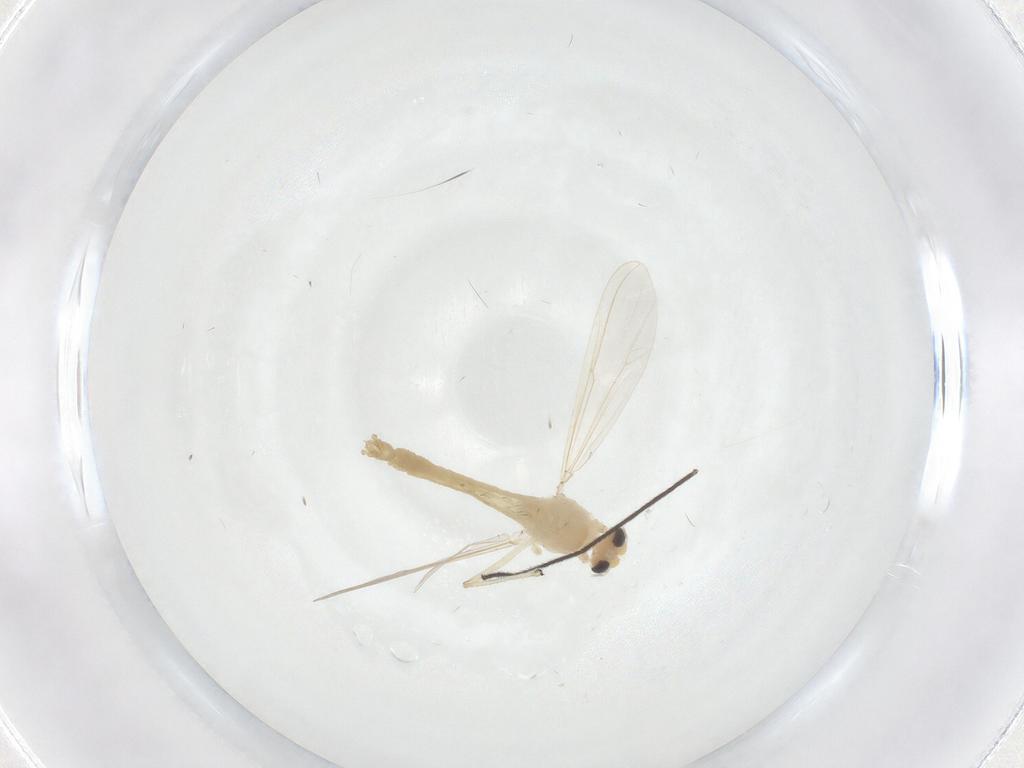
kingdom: Animalia
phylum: Arthropoda
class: Insecta
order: Diptera
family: Chironomidae
